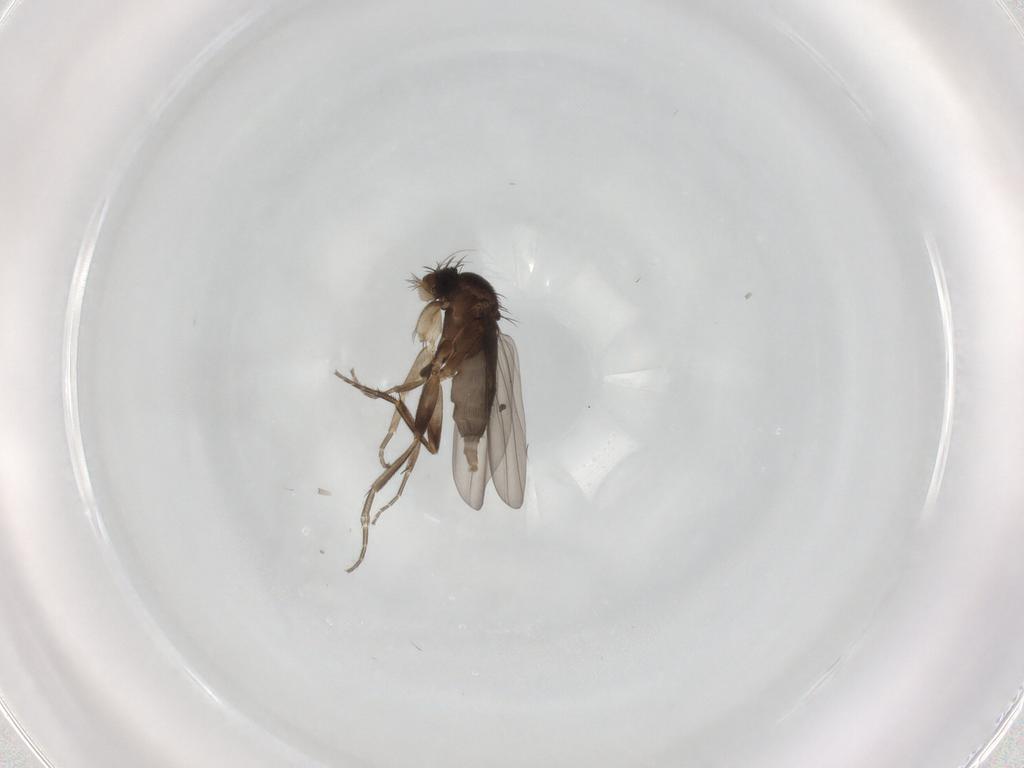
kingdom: Animalia
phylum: Arthropoda
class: Insecta
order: Diptera
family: Phoridae
